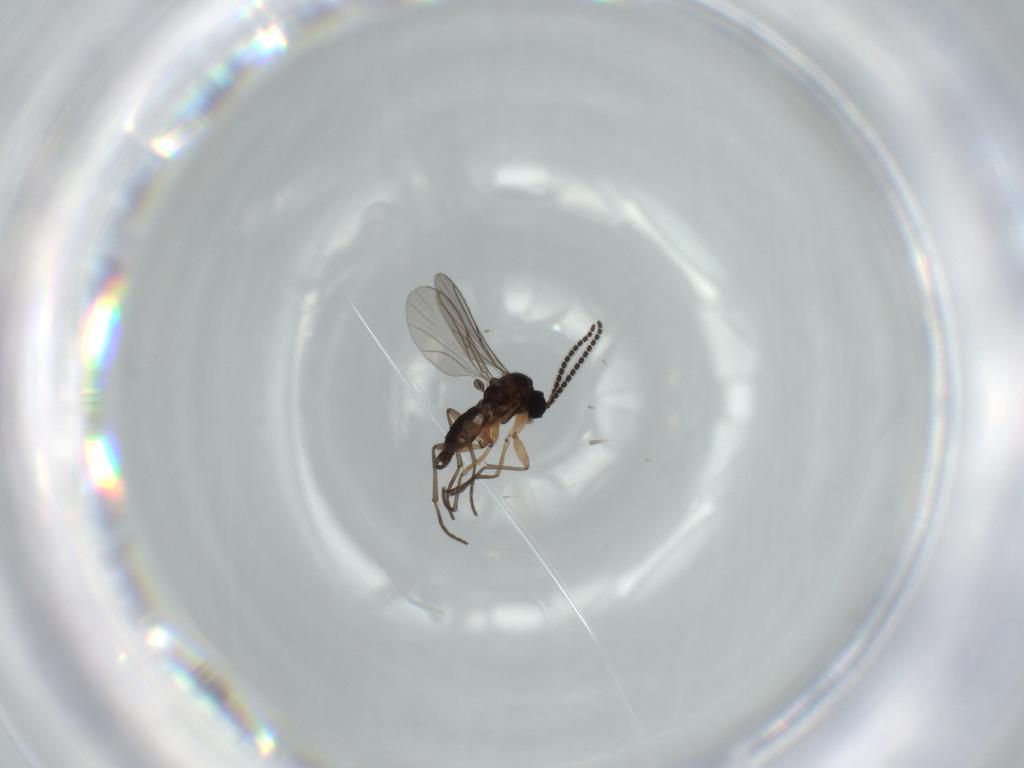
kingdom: Animalia
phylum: Arthropoda
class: Insecta
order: Diptera
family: Sciaridae
